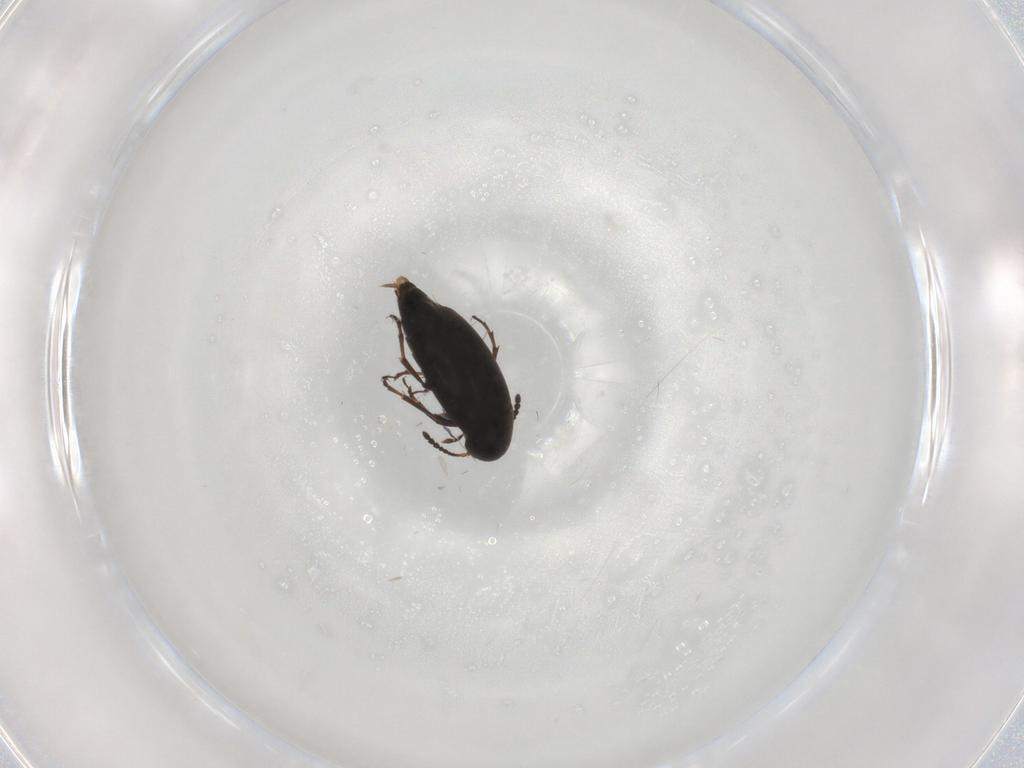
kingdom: Animalia
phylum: Arthropoda
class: Insecta
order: Coleoptera
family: Scraptiidae
